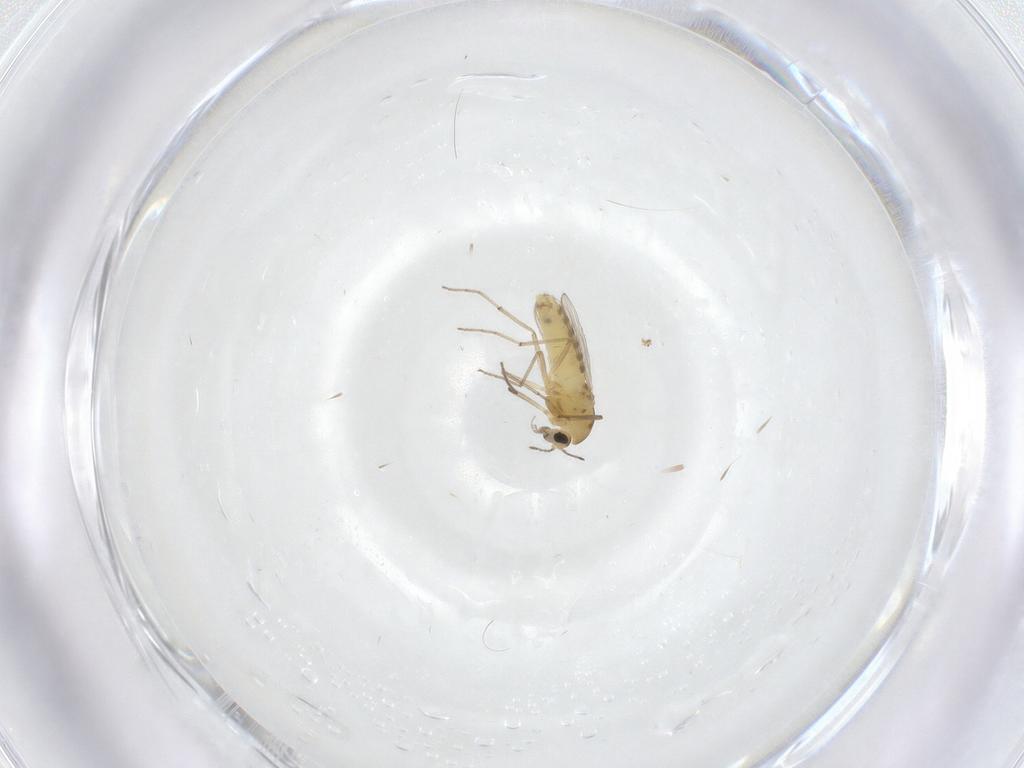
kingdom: Animalia
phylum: Arthropoda
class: Insecta
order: Diptera
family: Chironomidae
